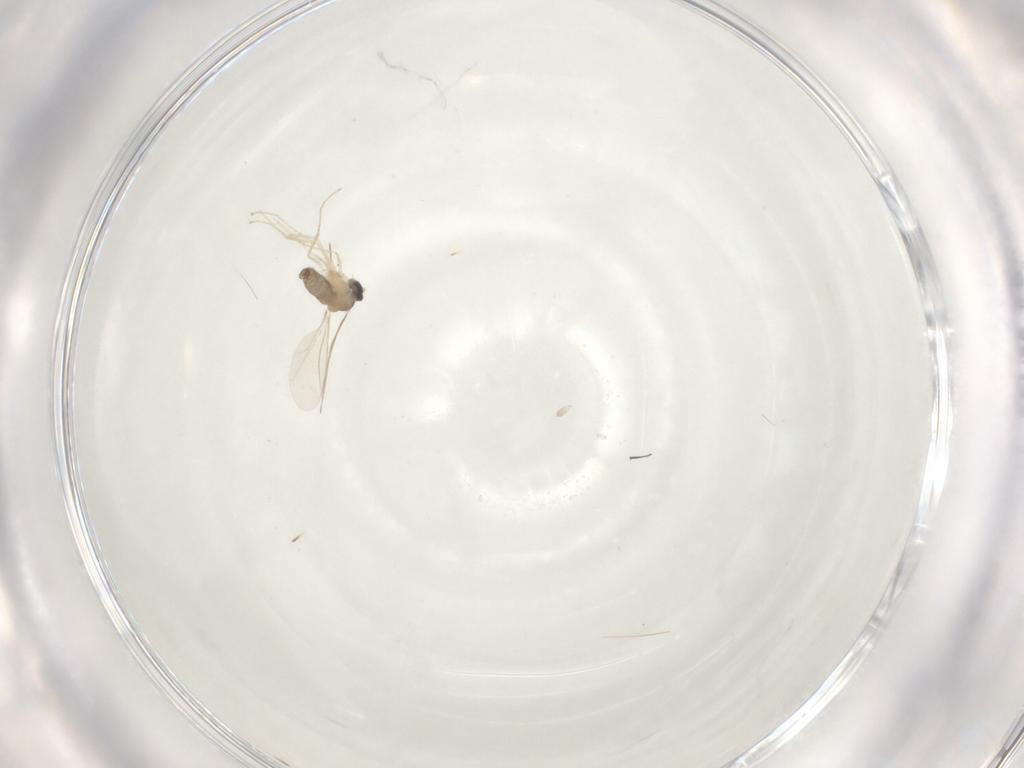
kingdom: Animalia
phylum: Arthropoda
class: Insecta
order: Diptera
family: Cecidomyiidae
